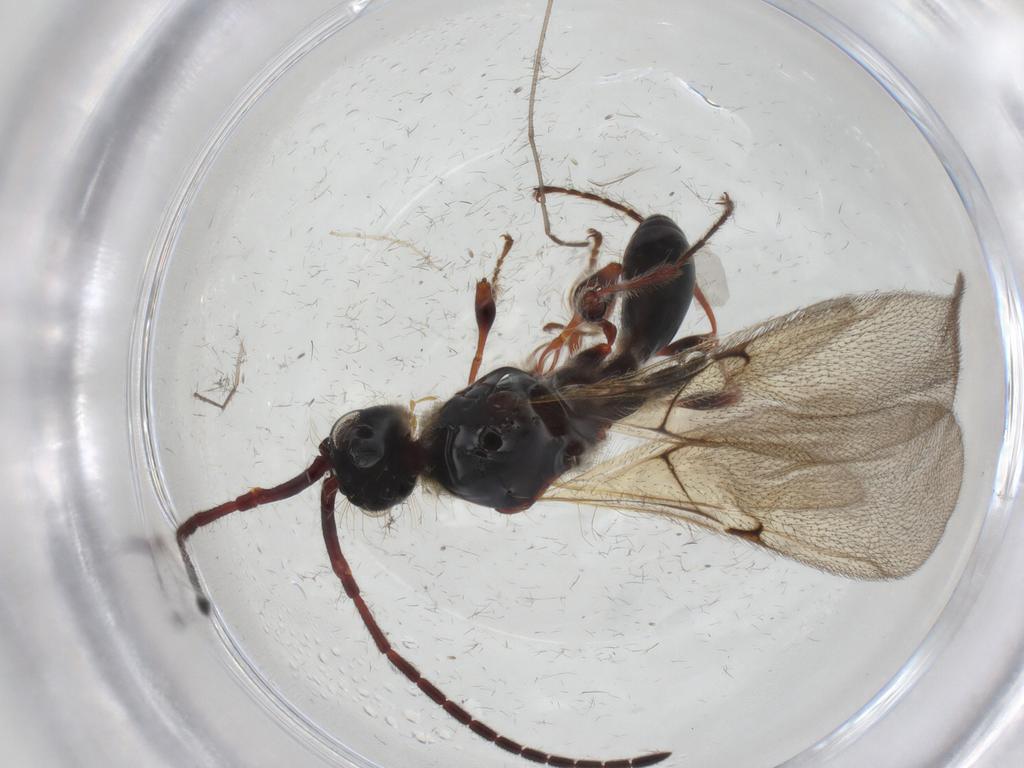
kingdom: Animalia
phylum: Arthropoda
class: Insecta
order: Hymenoptera
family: Diapriidae
